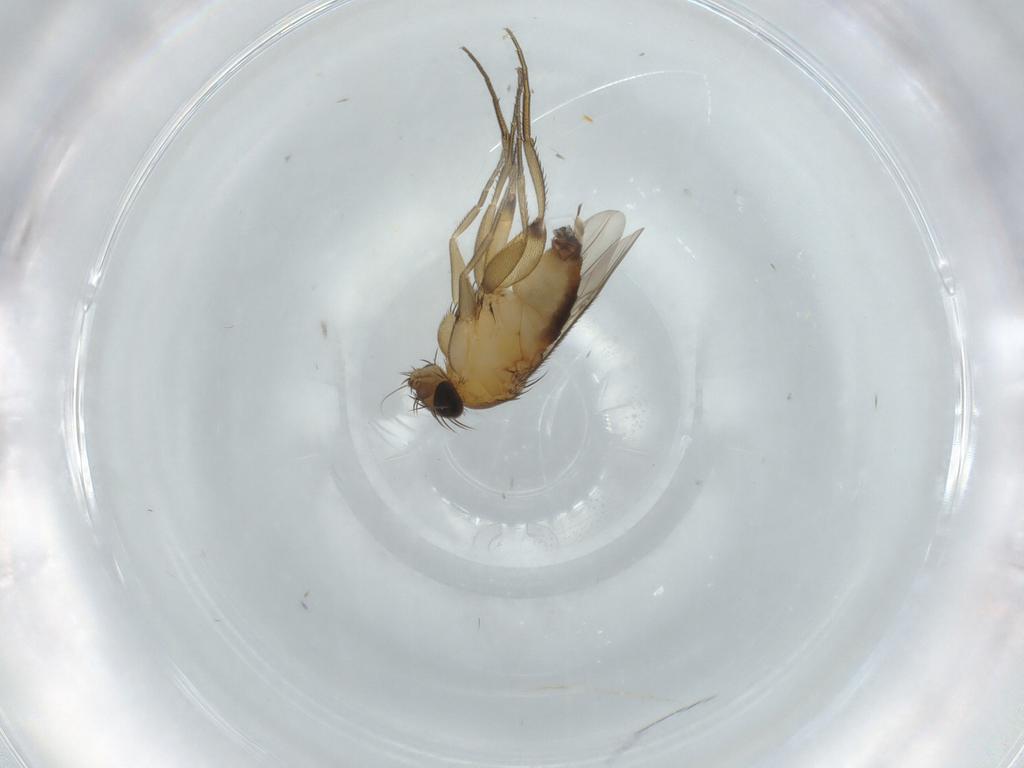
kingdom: Animalia
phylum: Arthropoda
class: Insecta
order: Diptera
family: Phoridae
